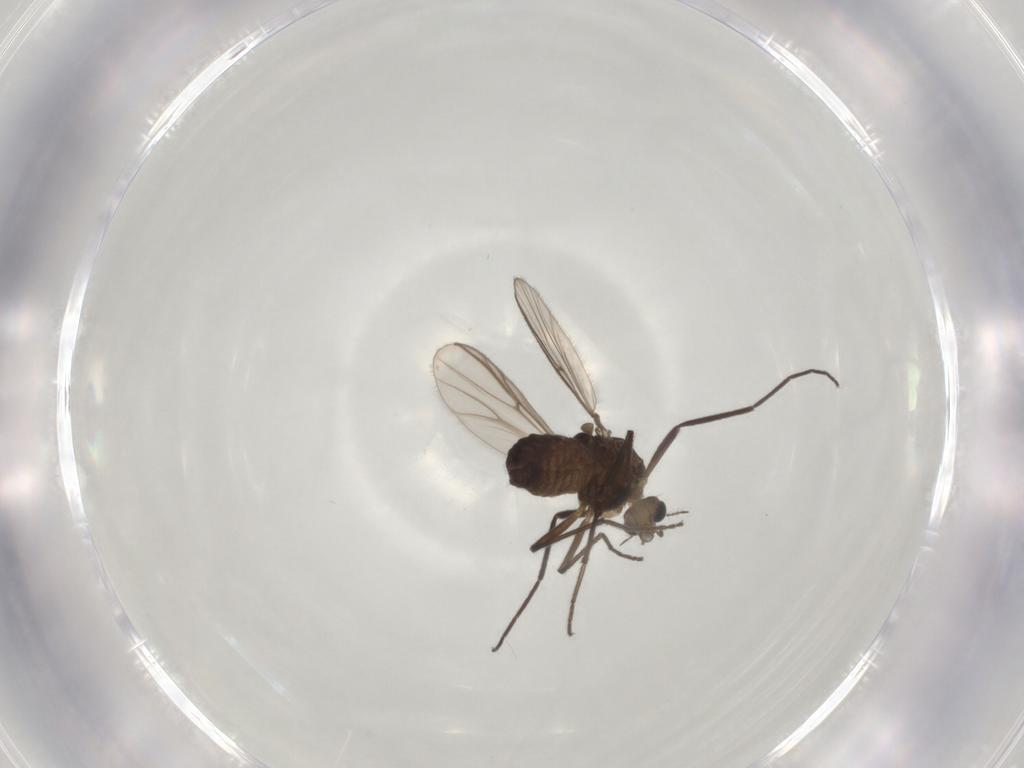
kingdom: Animalia
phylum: Arthropoda
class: Insecta
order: Diptera
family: Chironomidae
